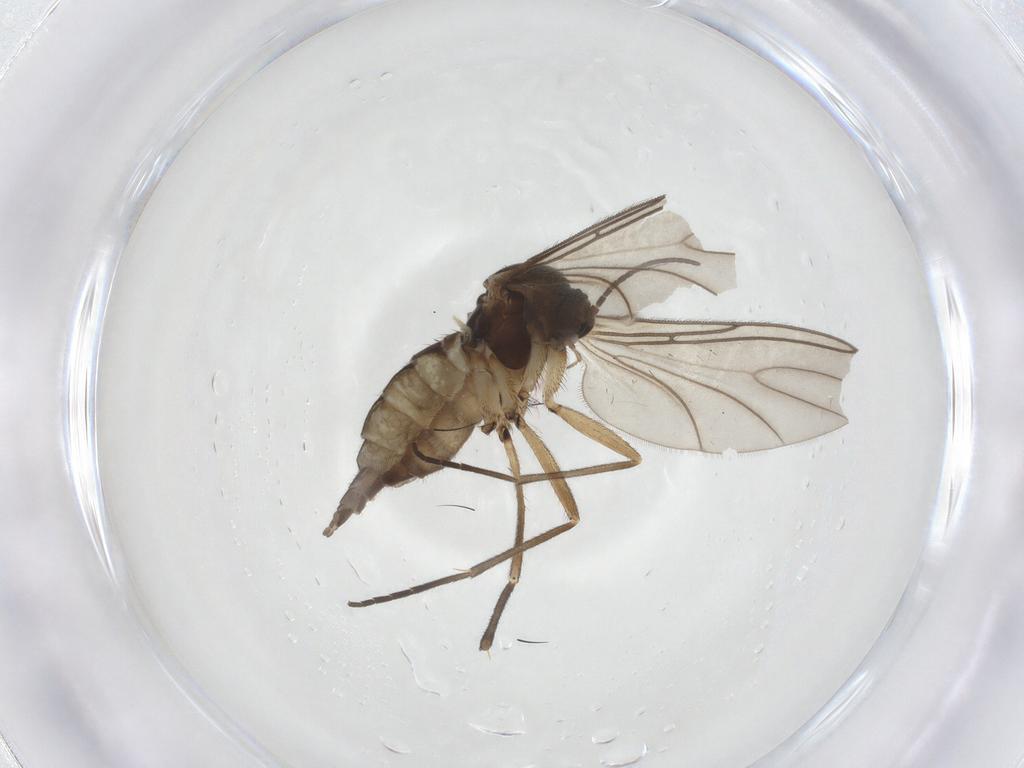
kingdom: Animalia
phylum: Arthropoda
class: Insecta
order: Diptera
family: Sciaridae
